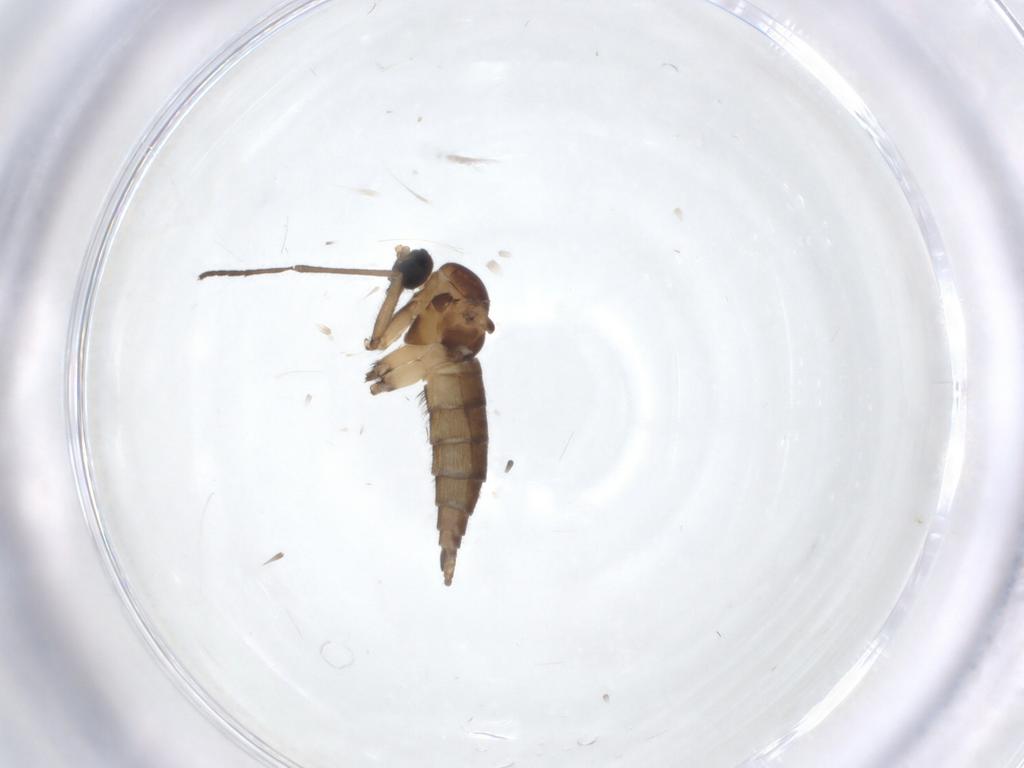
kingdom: Animalia
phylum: Arthropoda
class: Insecta
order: Diptera
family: Sciaridae
